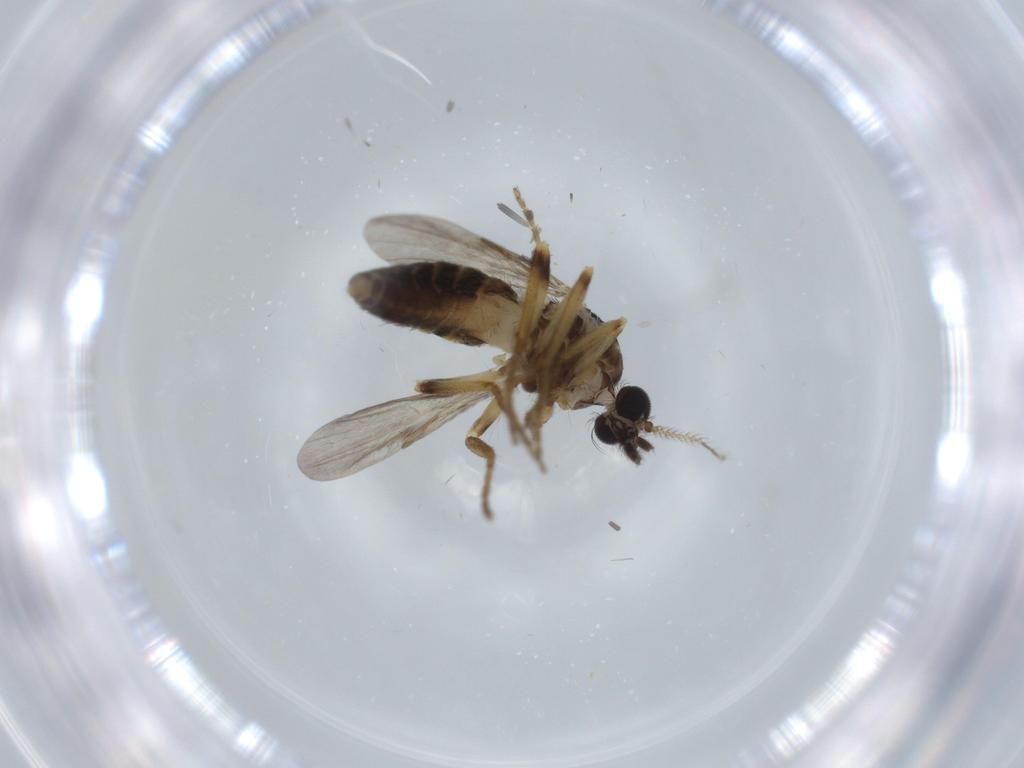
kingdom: Animalia
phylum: Arthropoda
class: Insecta
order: Diptera
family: Ceratopogonidae
